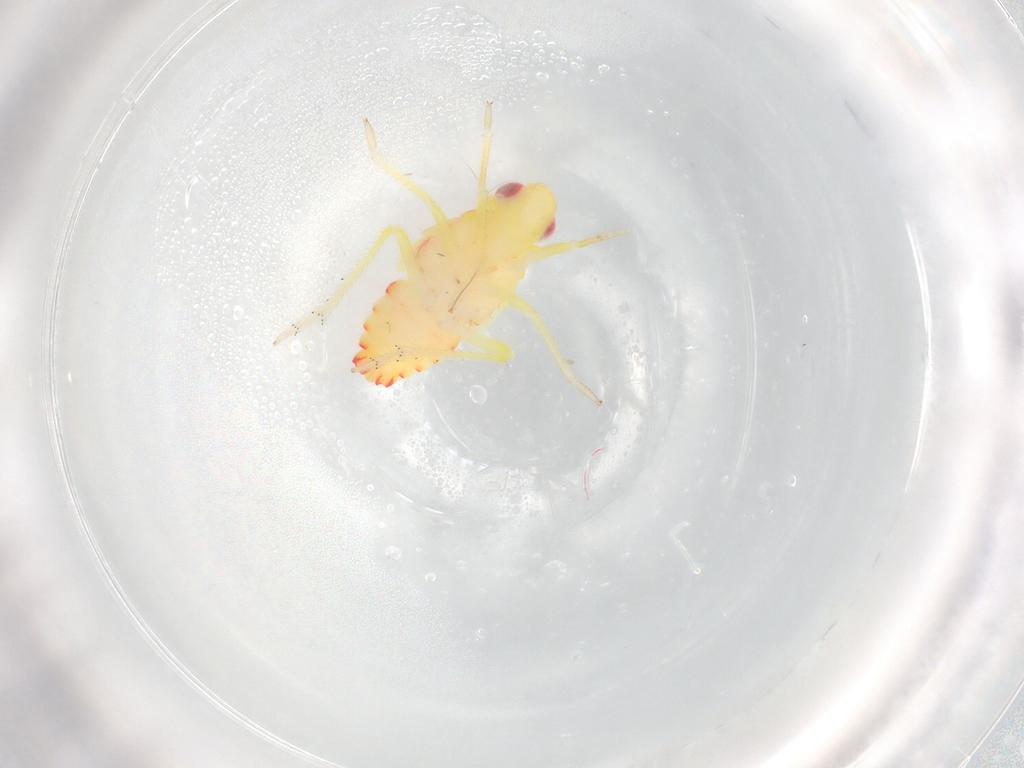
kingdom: Animalia
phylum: Arthropoda
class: Insecta
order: Hemiptera
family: Tropiduchidae
